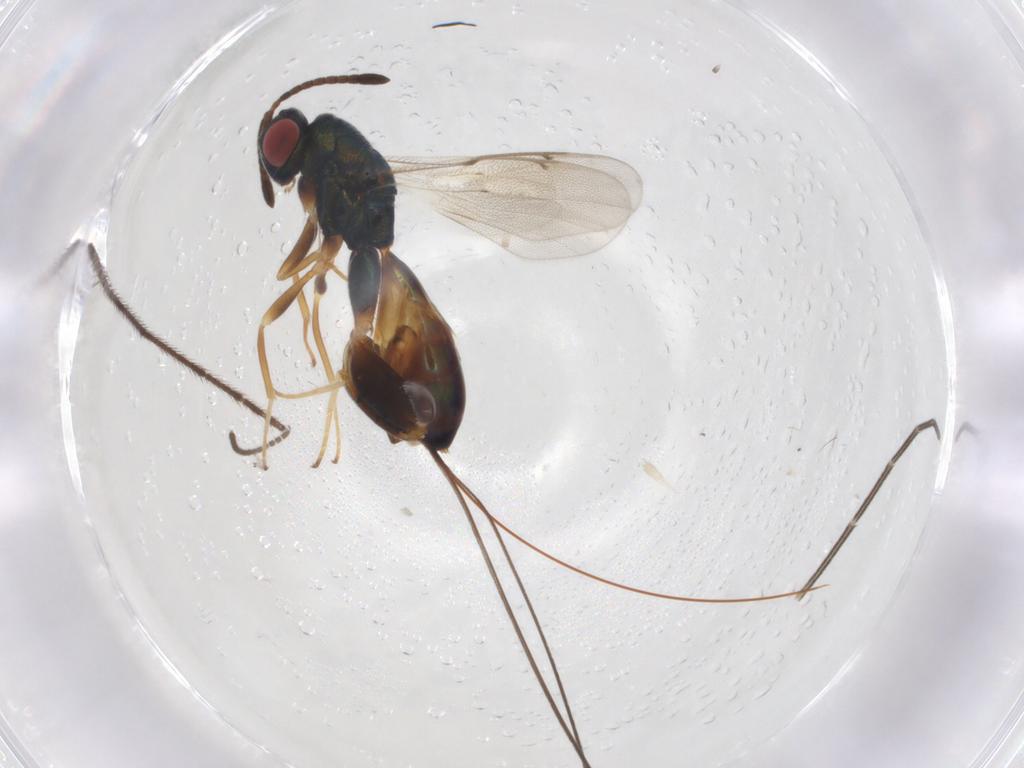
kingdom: Animalia
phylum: Arthropoda
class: Insecta
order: Hymenoptera
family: Torymidae
